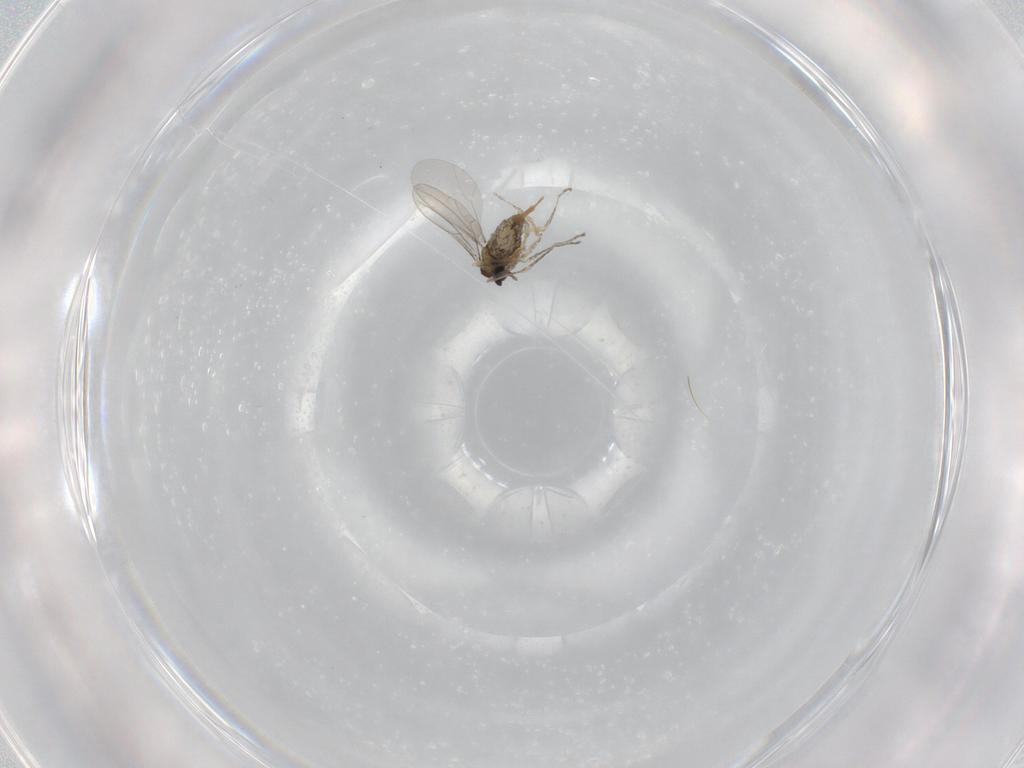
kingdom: Animalia
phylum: Arthropoda
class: Insecta
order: Diptera
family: Cecidomyiidae
